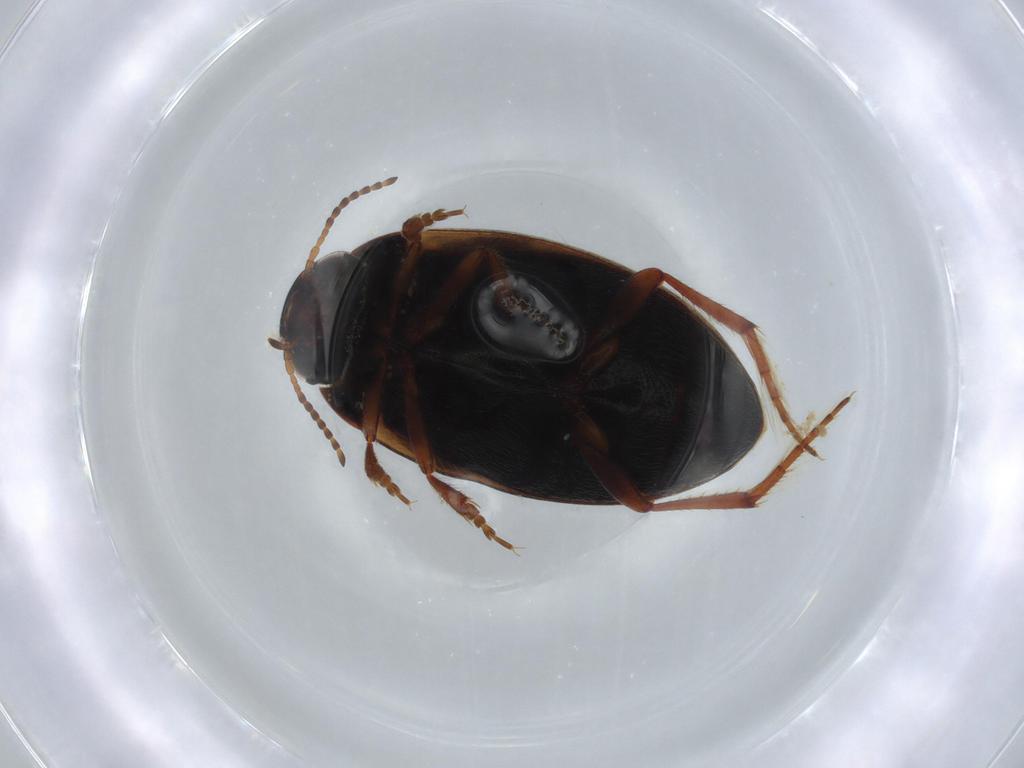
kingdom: Animalia
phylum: Arthropoda
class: Insecta
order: Coleoptera
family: Dytiscidae
